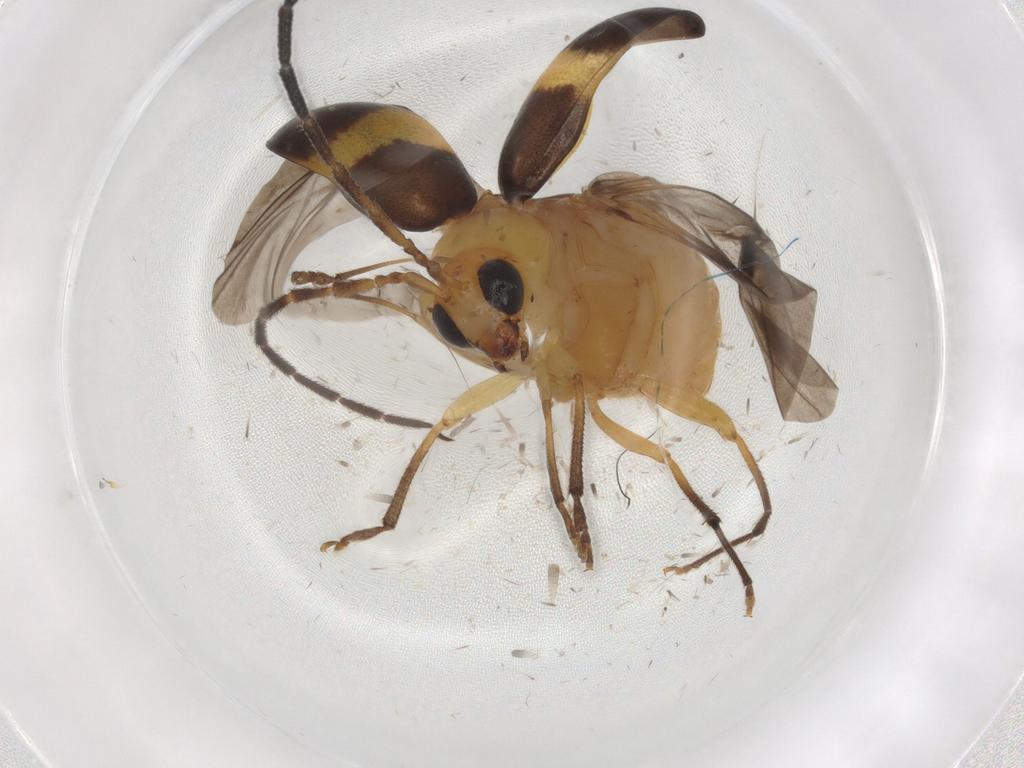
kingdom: Animalia
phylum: Arthropoda
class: Insecta
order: Coleoptera
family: Chrysomelidae
